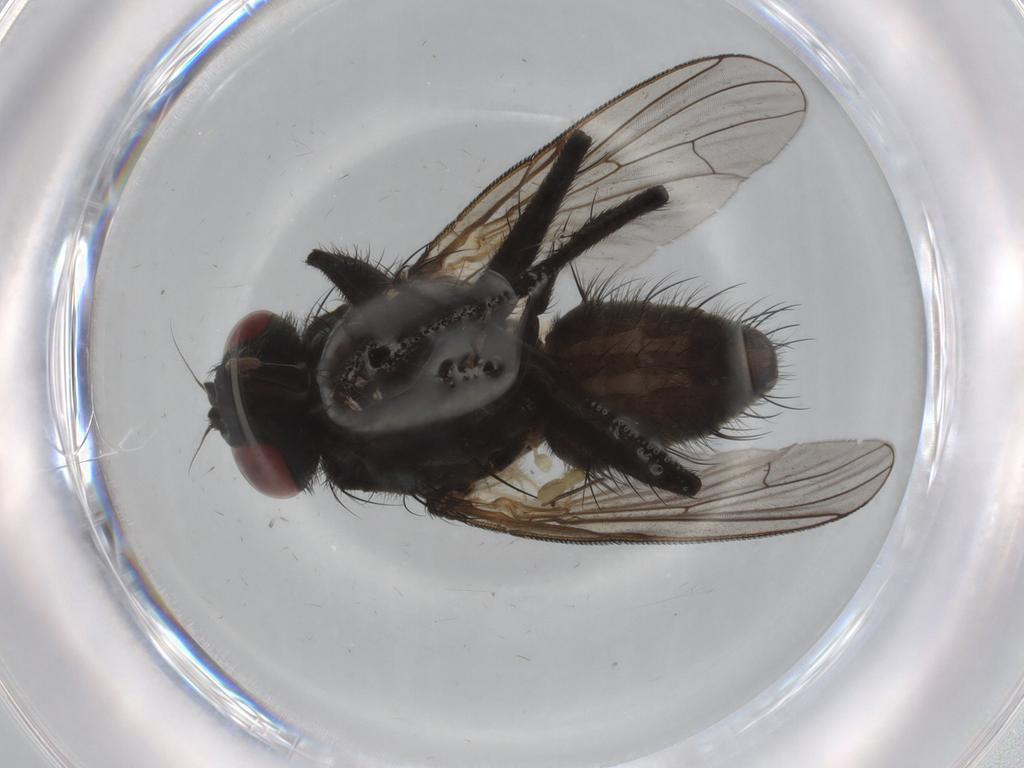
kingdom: Animalia
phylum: Arthropoda
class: Insecta
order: Diptera
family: Muscidae
